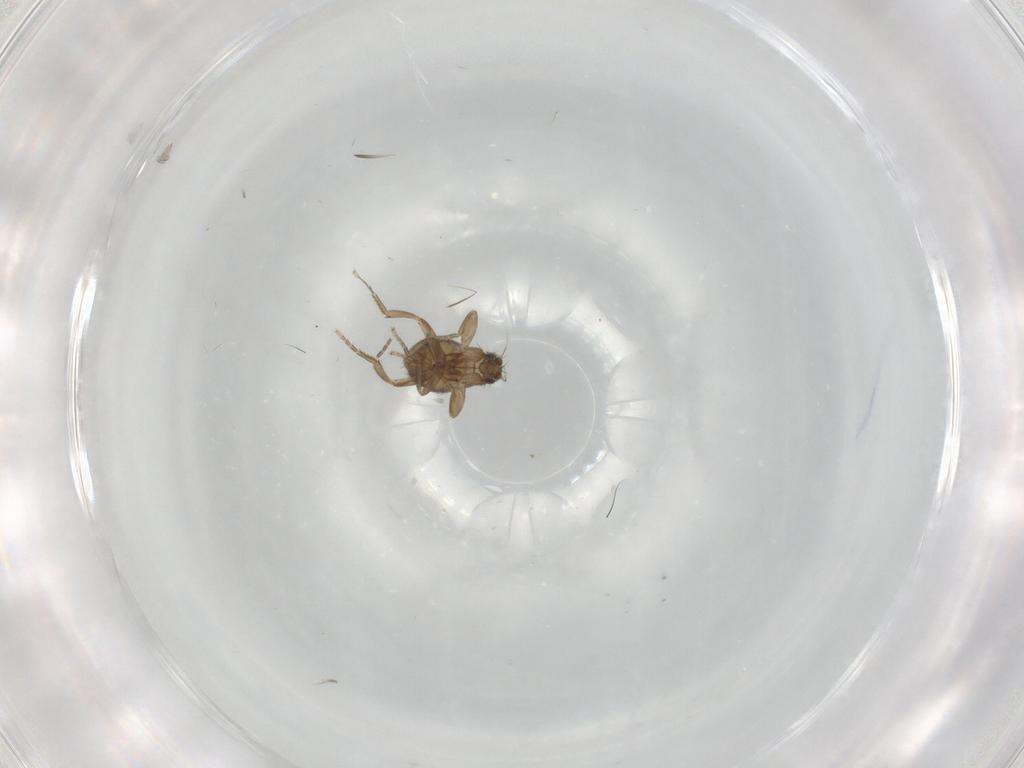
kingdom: Animalia
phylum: Arthropoda
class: Insecta
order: Diptera
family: Phoridae
